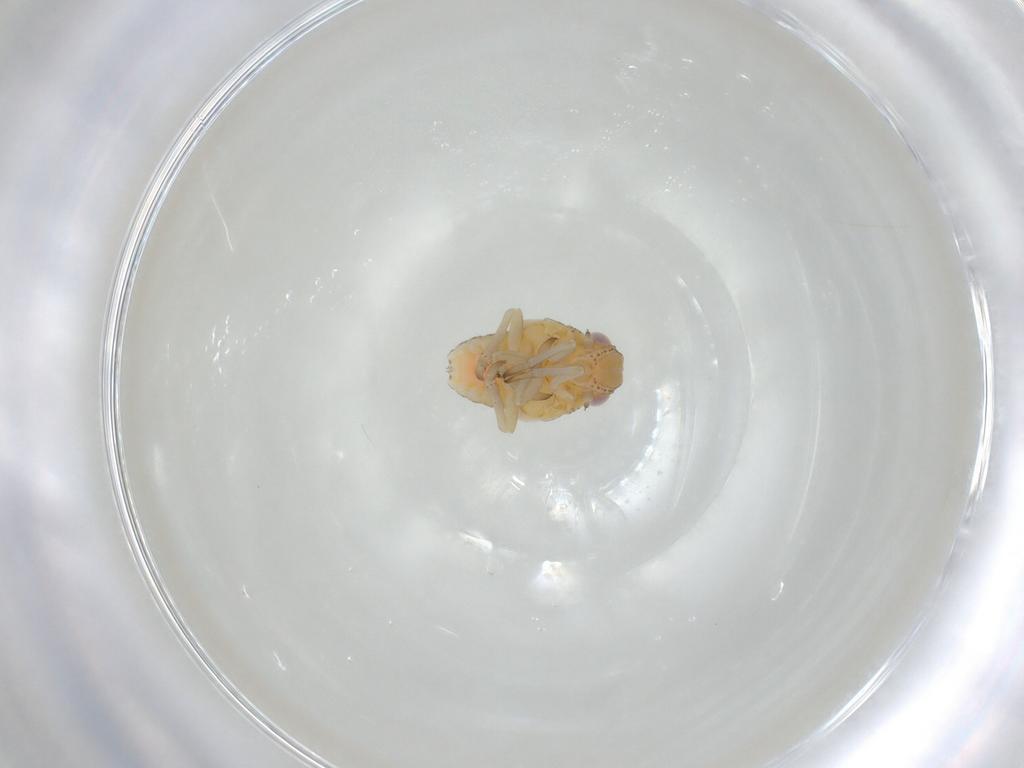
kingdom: Animalia
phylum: Arthropoda
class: Insecta
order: Hemiptera
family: Tropiduchidae
